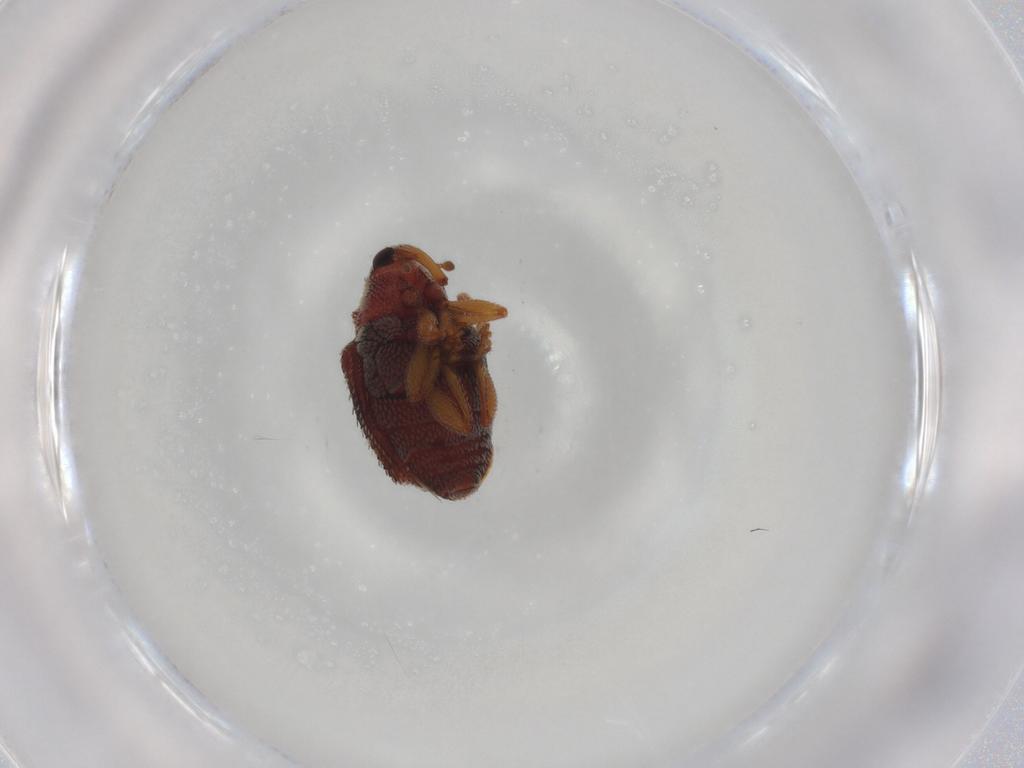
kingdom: Animalia
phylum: Arthropoda
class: Insecta
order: Coleoptera
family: Curculionidae
